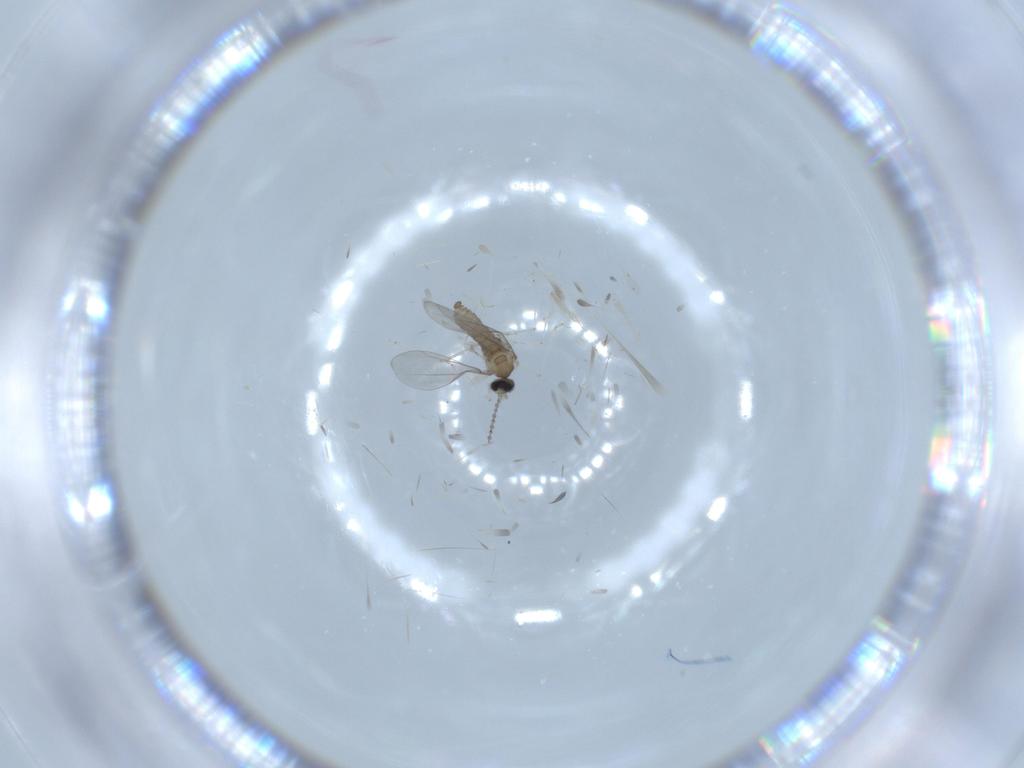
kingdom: Animalia
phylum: Arthropoda
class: Insecta
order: Diptera
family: Cecidomyiidae
